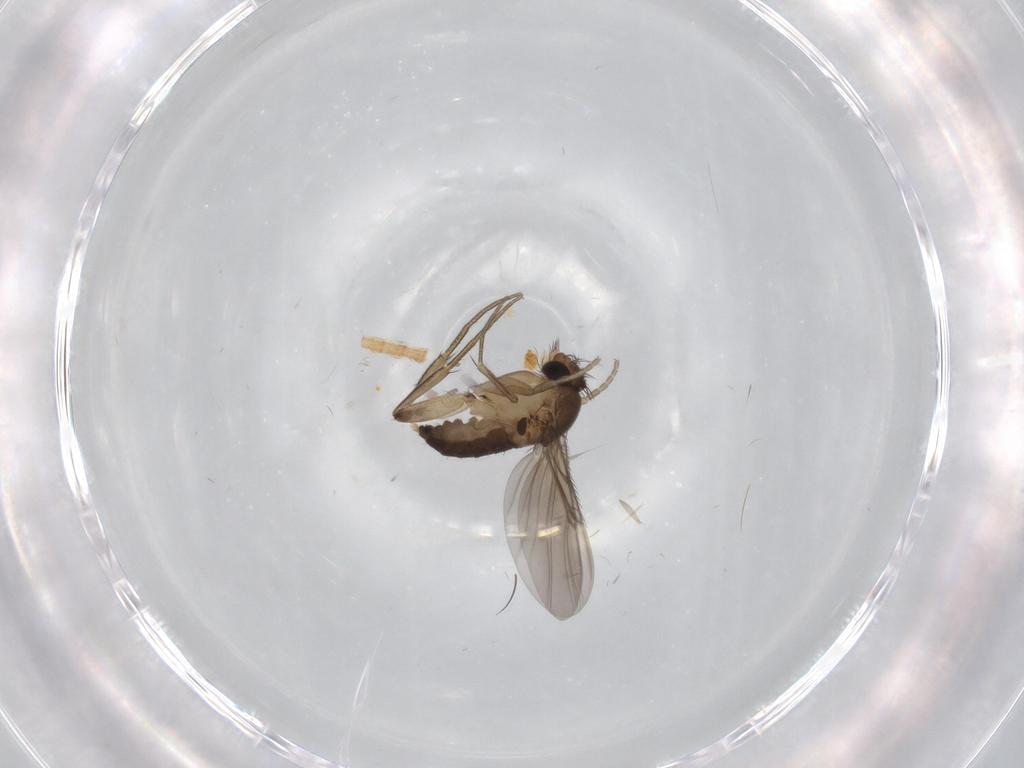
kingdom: Animalia
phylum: Arthropoda
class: Insecta
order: Diptera
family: Phoridae
